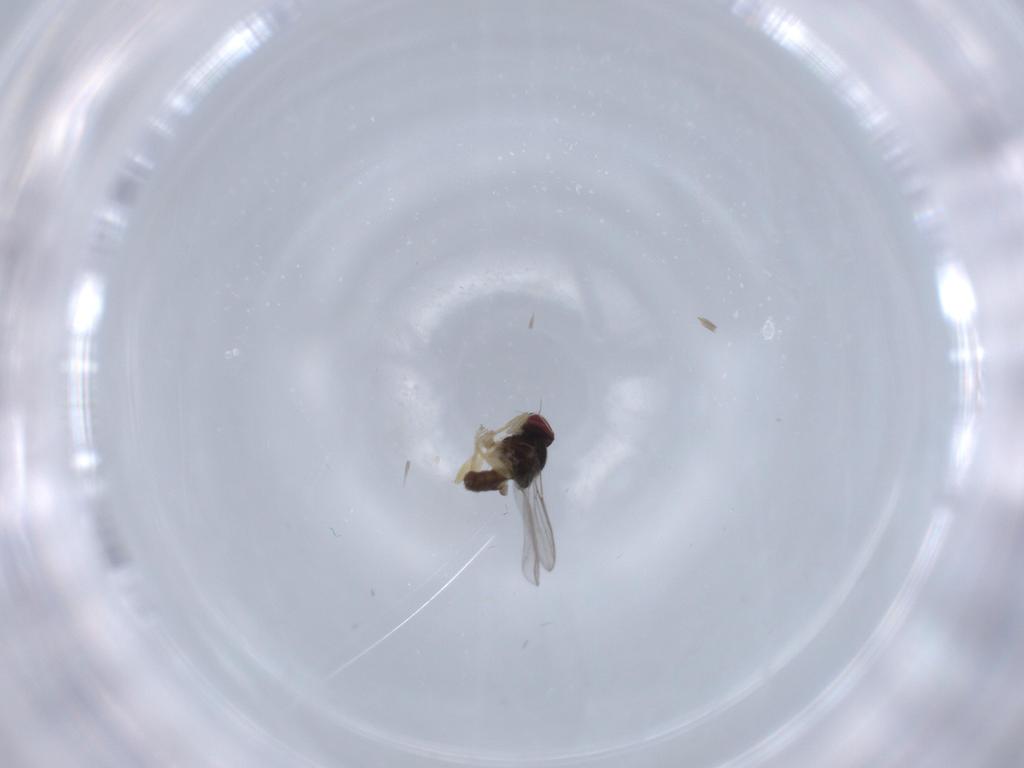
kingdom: Animalia
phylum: Arthropoda
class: Insecta
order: Diptera
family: Chloropidae
